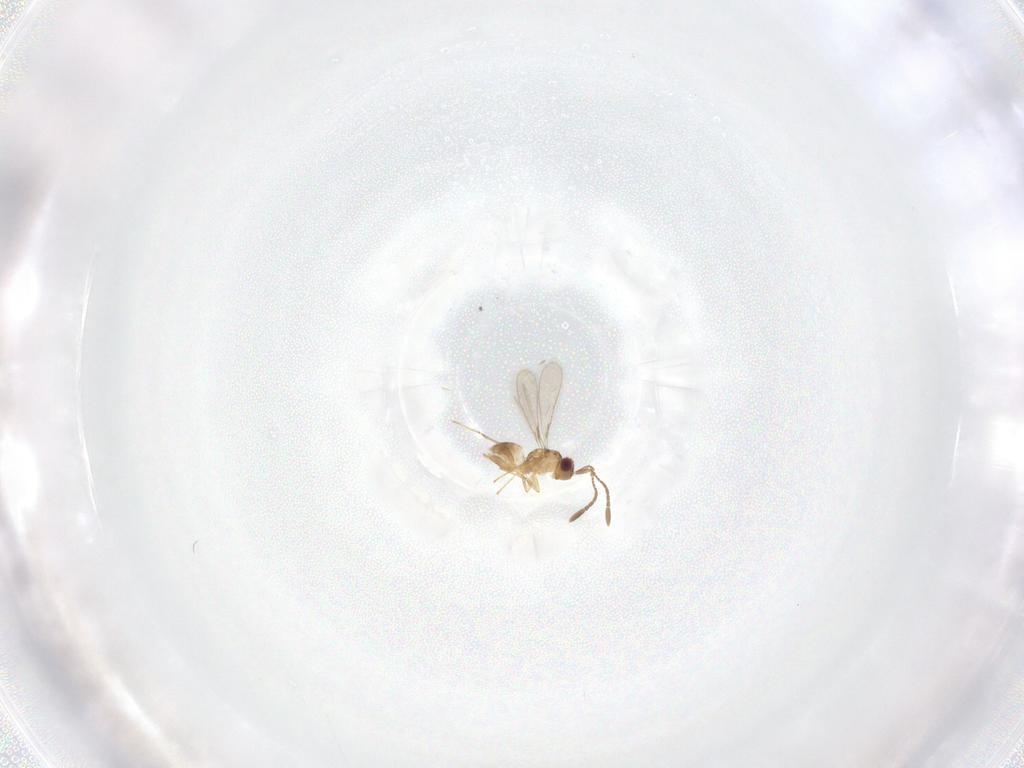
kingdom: Animalia
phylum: Arthropoda
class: Insecta
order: Hymenoptera
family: Mymaridae
